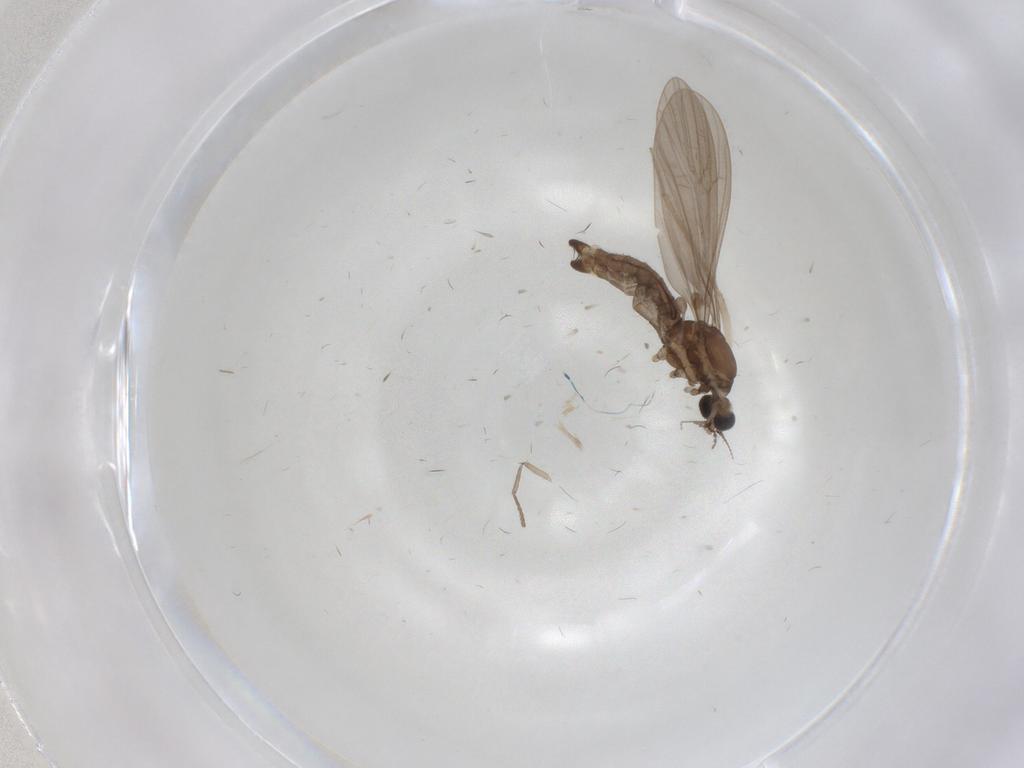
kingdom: Animalia
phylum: Arthropoda
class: Insecta
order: Diptera
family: Limoniidae
